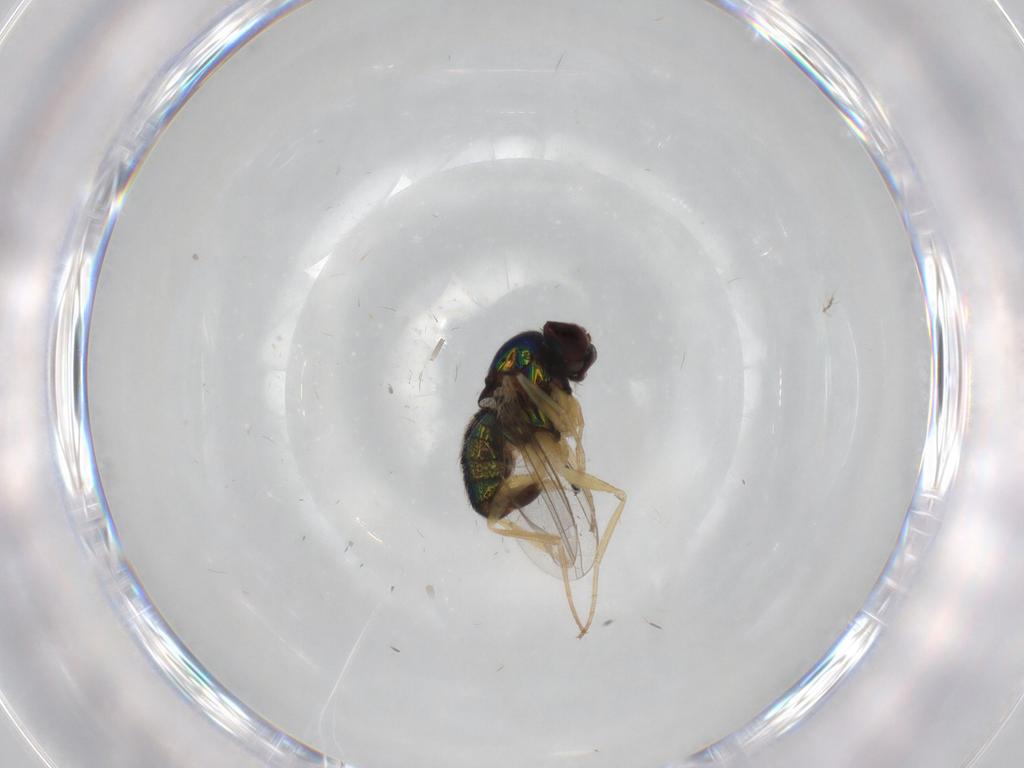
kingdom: Animalia
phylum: Arthropoda
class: Insecta
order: Diptera
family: Dolichopodidae
